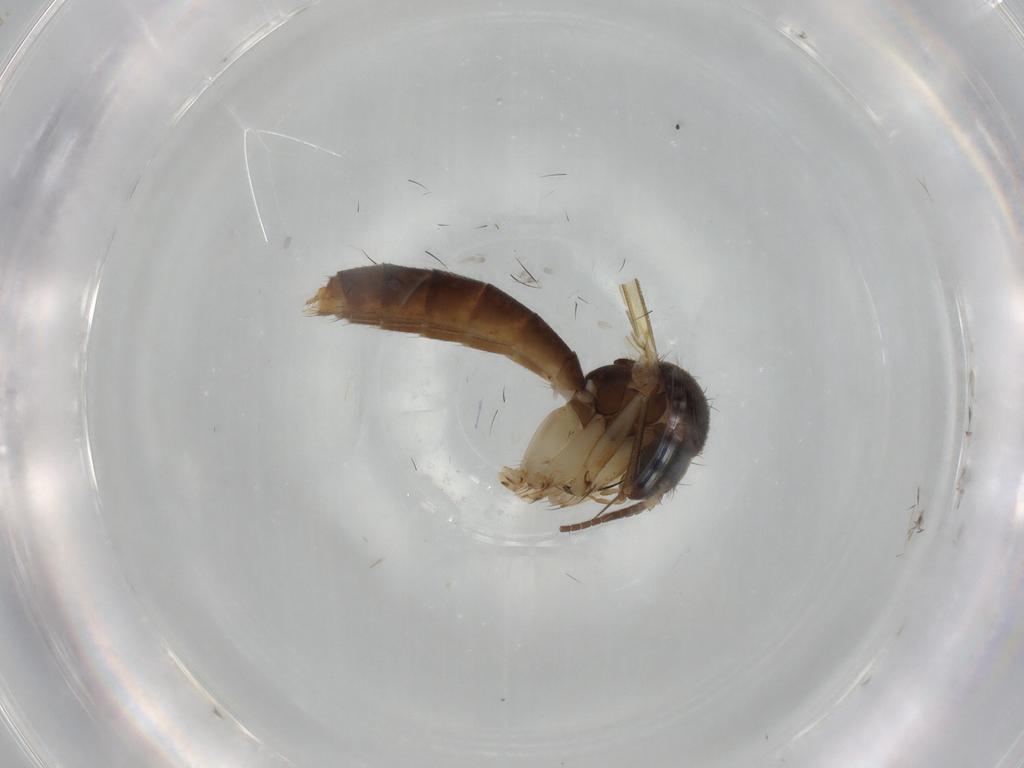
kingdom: Animalia
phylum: Arthropoda
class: Insecta
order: Diptera
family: Mycetophilidae
